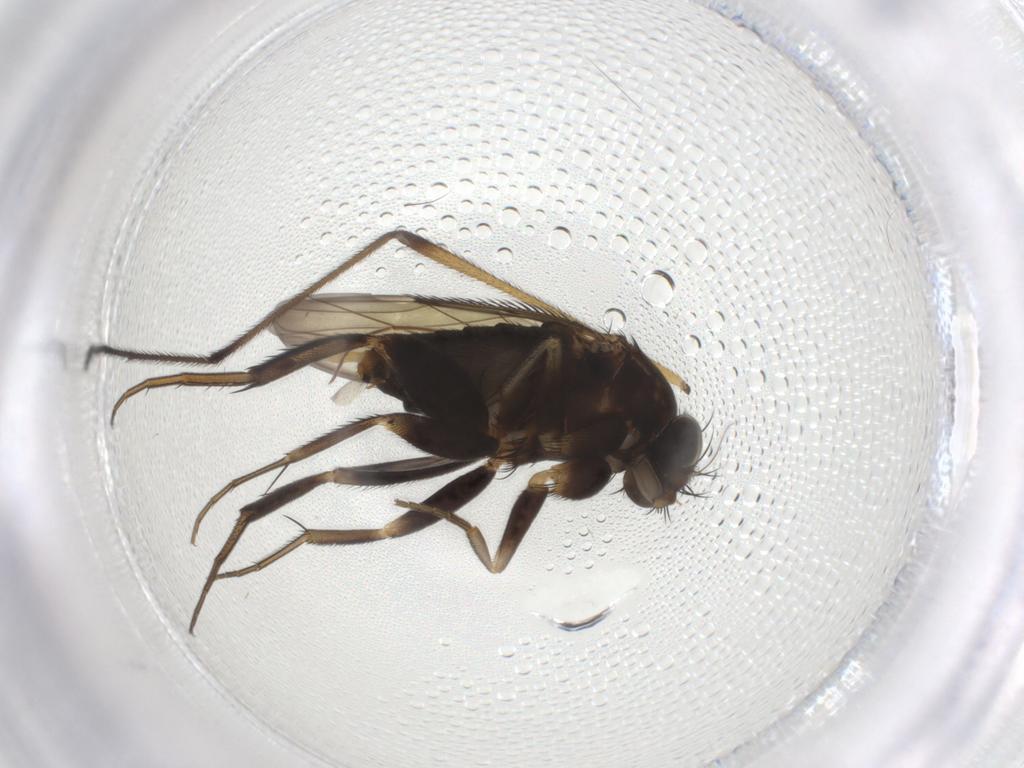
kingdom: Animalia
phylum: Arthropoda
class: Insecta
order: Diptera
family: Cecidomyiidae
